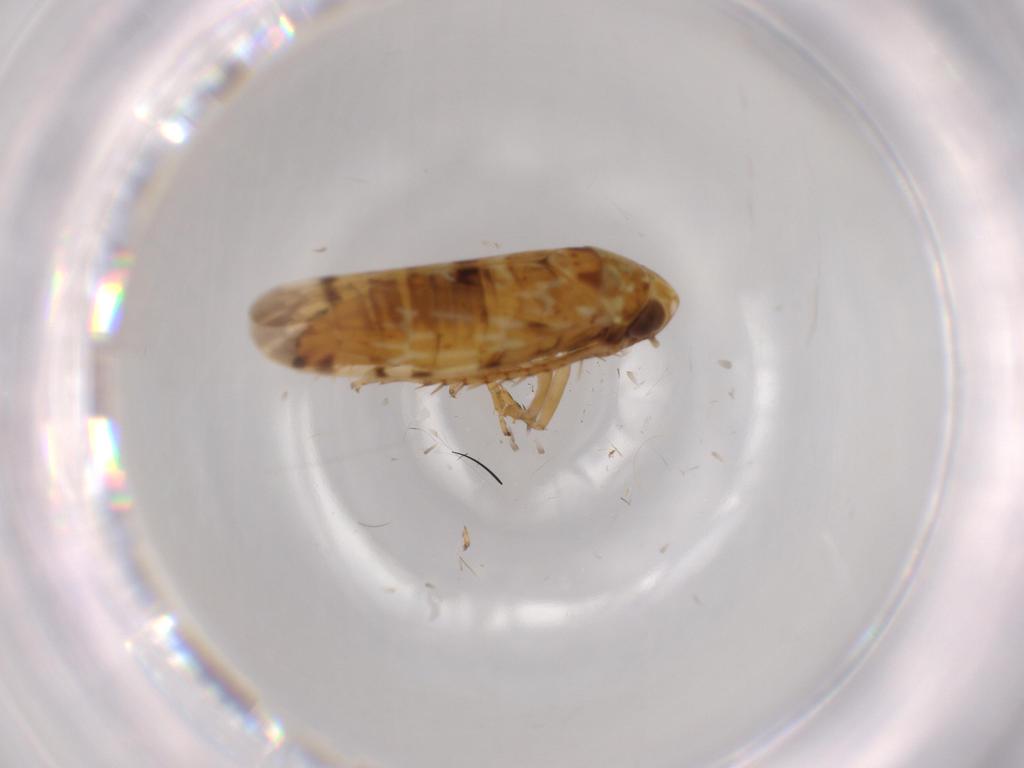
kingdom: Animalia
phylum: Arthropoda
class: Insecta
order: Hemiptera
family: Cicadellidae
